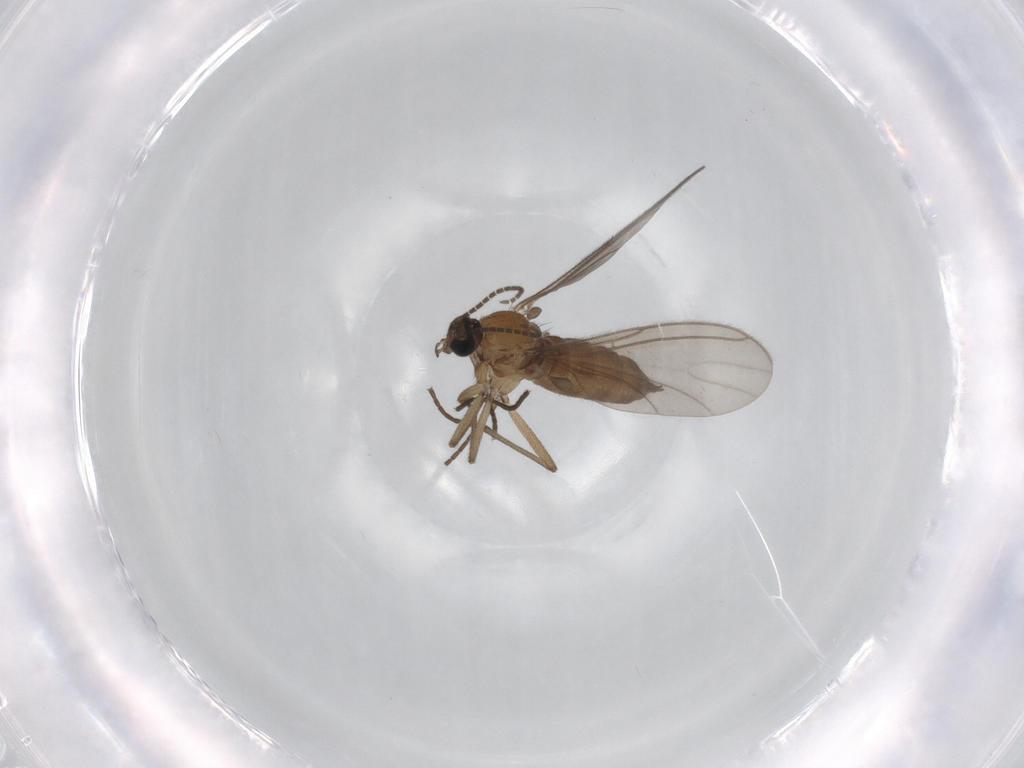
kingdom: Animalia
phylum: Arthropoda
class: Insecta
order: Diptera
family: Sciaridae
